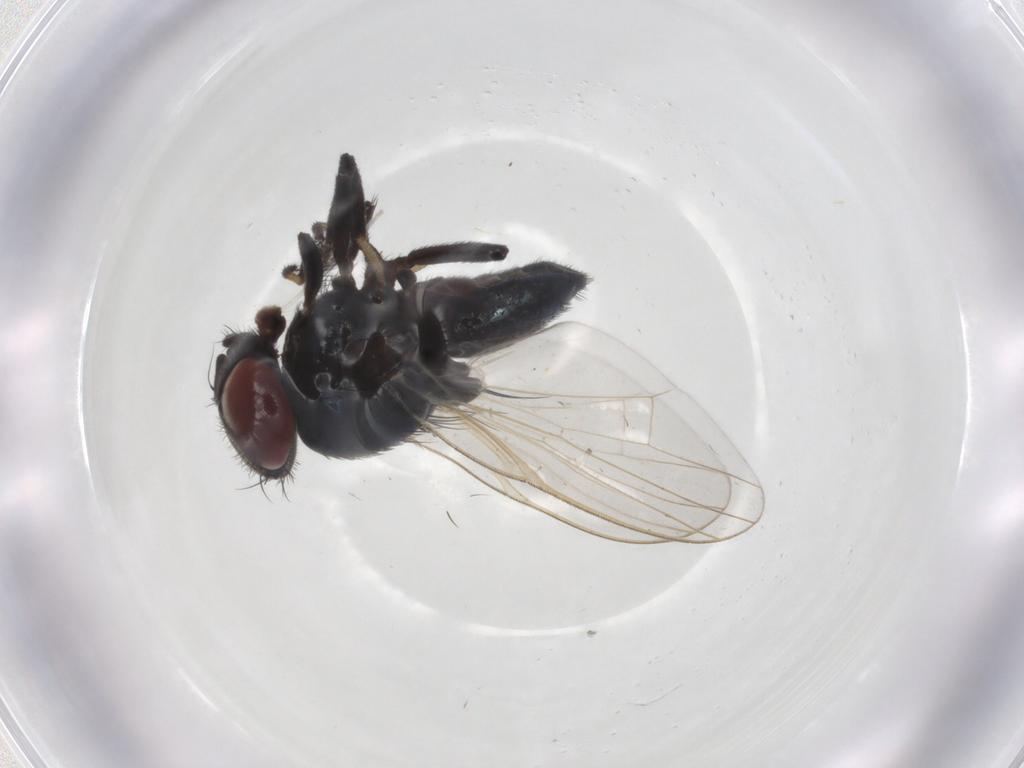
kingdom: Animalia
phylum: Arthropoda
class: Insecta
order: Diptera
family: Lonchaeidae
